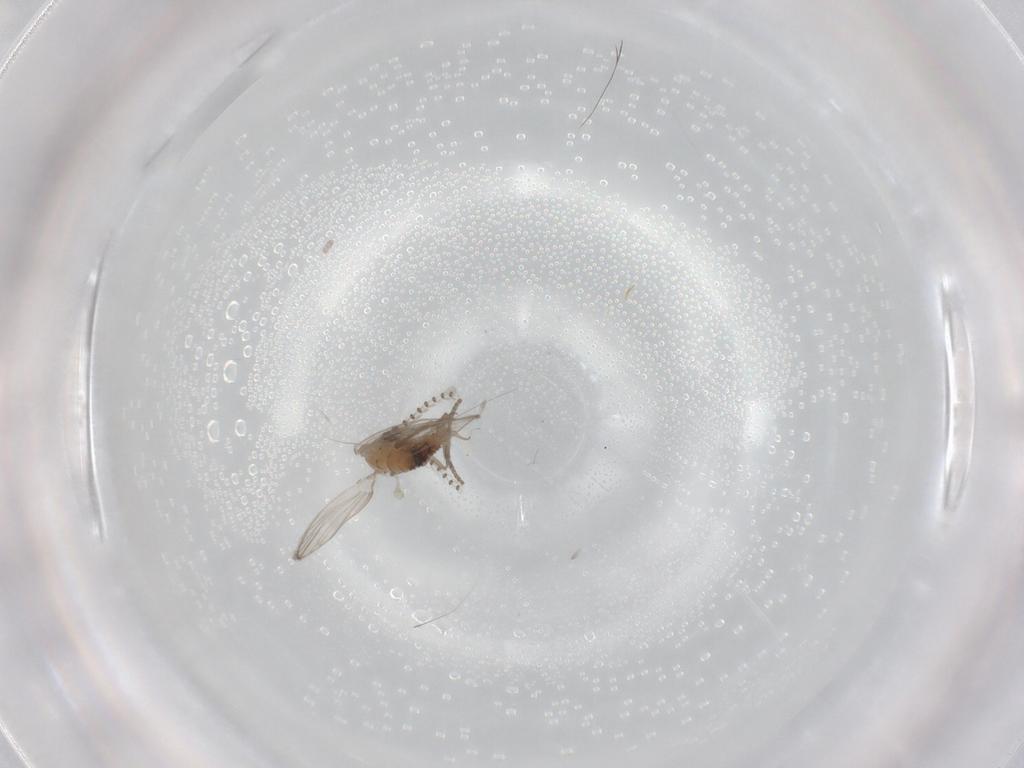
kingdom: Animalia
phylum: Arthropoda
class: Insecta
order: Diptera
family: Psychodidae
